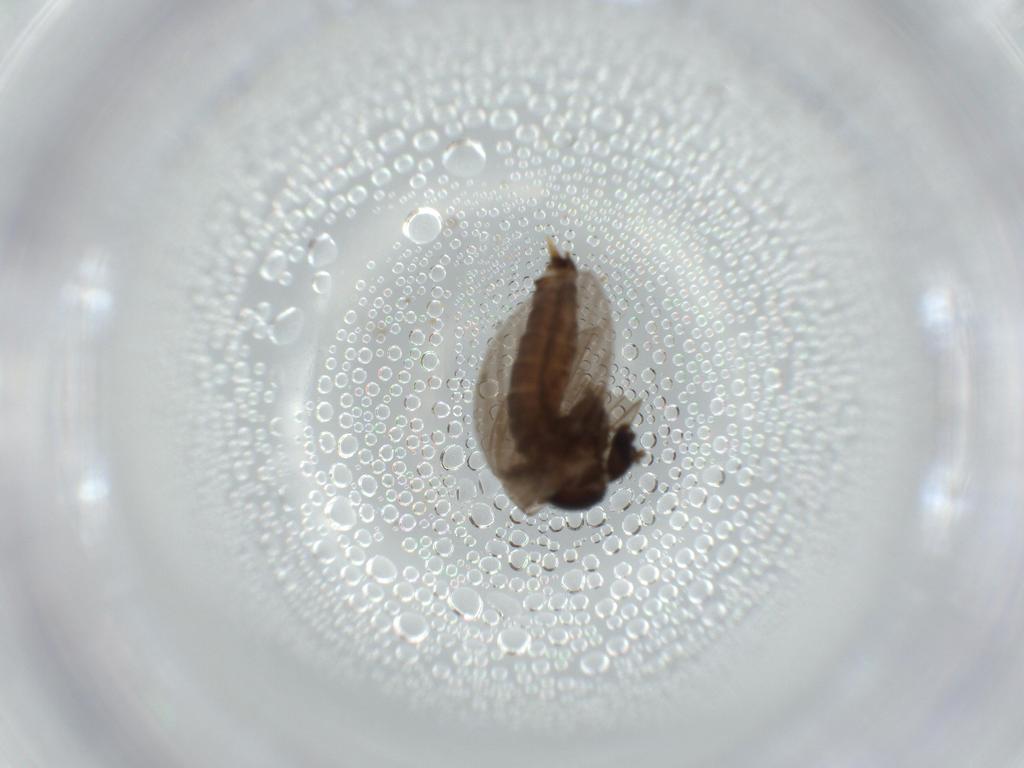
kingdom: Animalia
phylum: Arthropoda
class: Insecta
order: Diptera
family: Psychodidae
